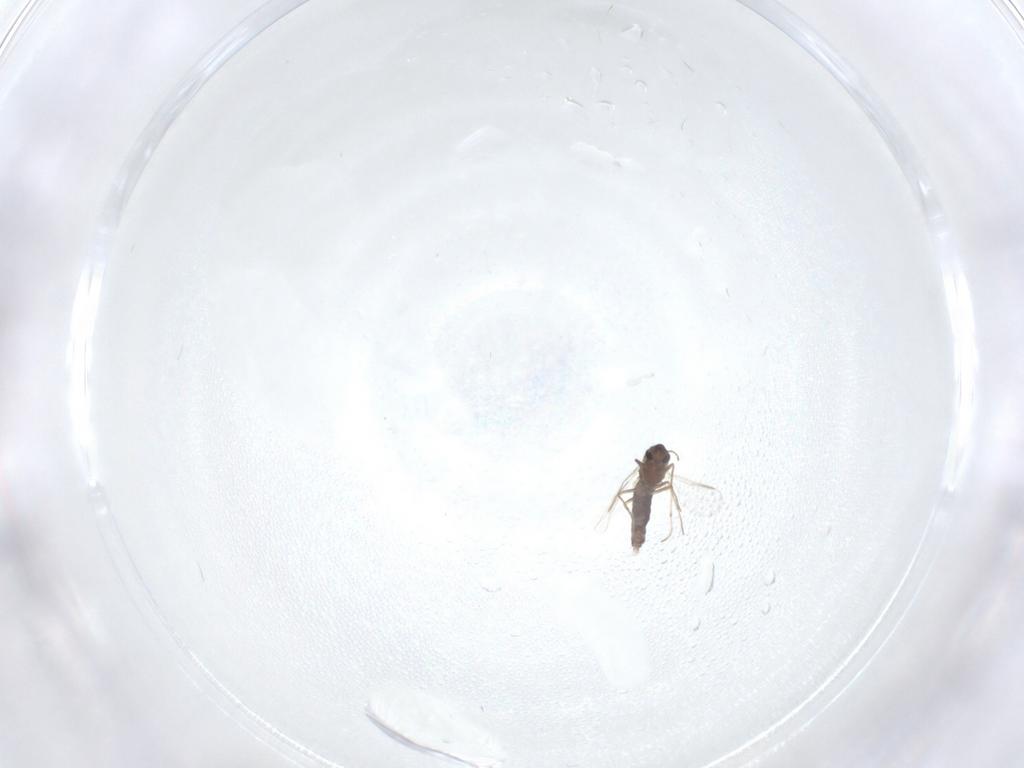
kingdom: Animalia
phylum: Arthropoda
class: Insecta
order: Diptera
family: Chironomidae
